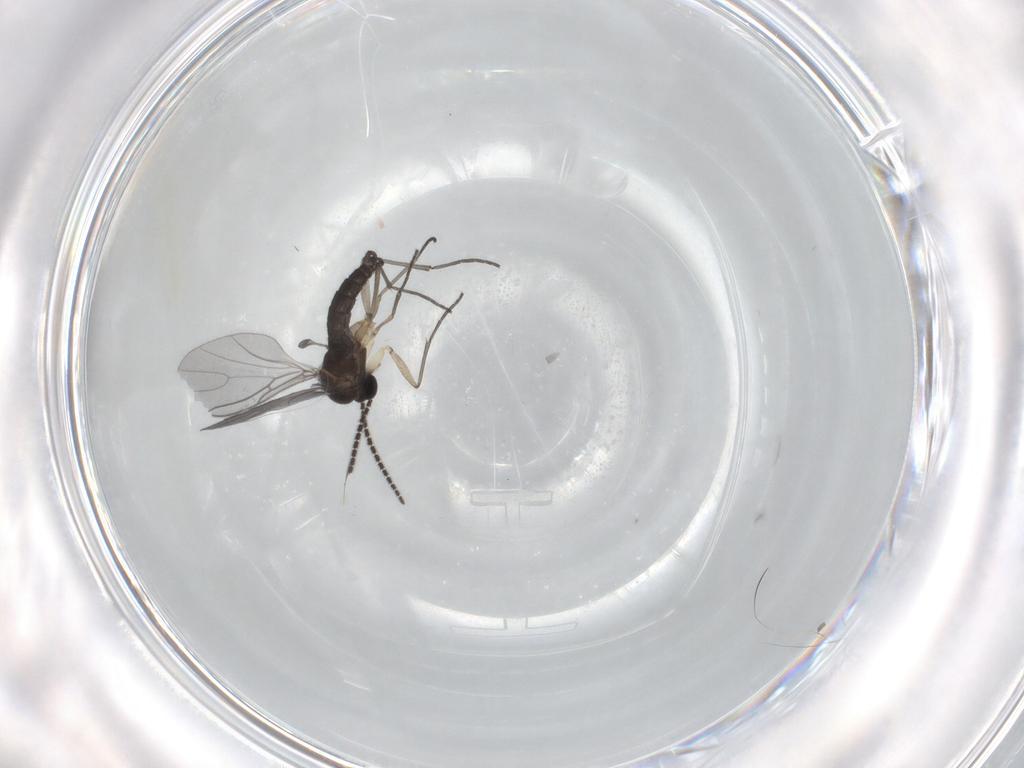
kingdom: Animalia
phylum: Arthropoda
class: Insecta
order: Diptera
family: Sciaridae
